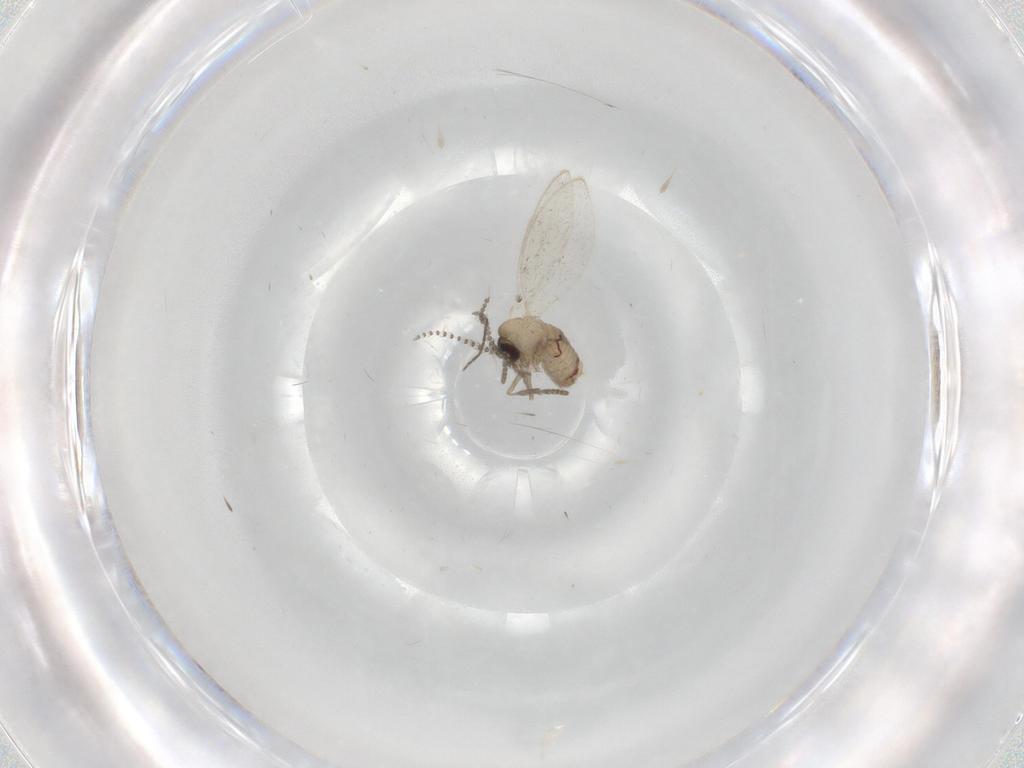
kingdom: Animalia
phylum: Arthropoda
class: Insecta
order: Diptera
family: Psychodidae
